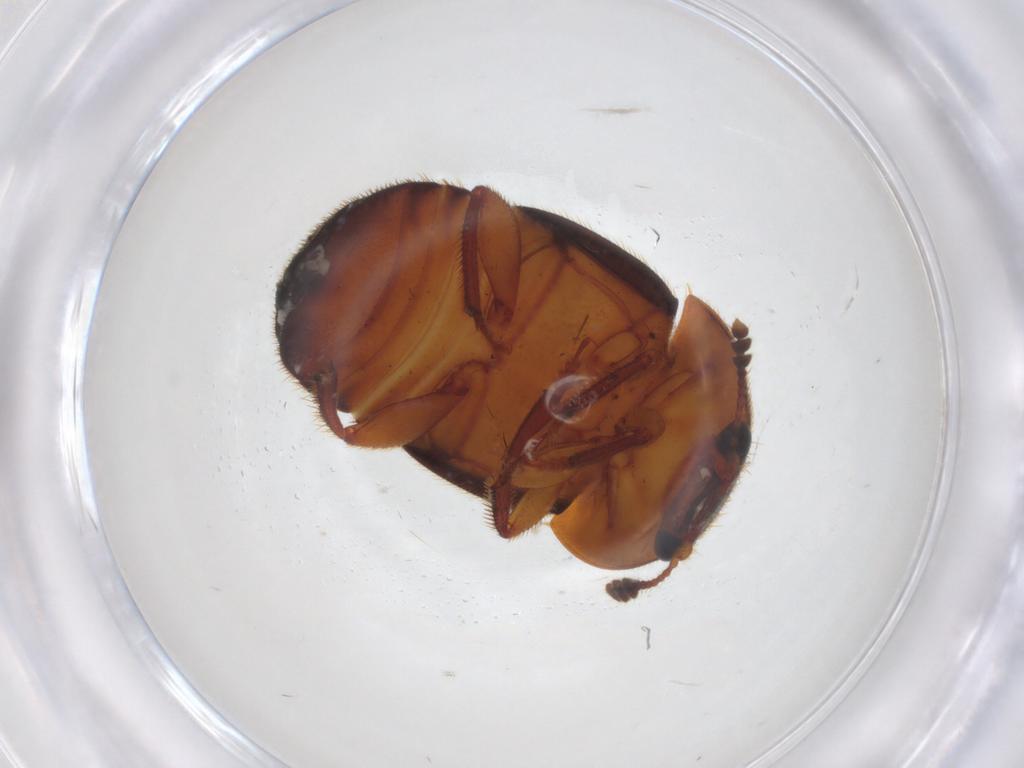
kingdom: Animalia
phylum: Arthropoda
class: Insecta
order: Coleoptera
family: Nitidulidae
